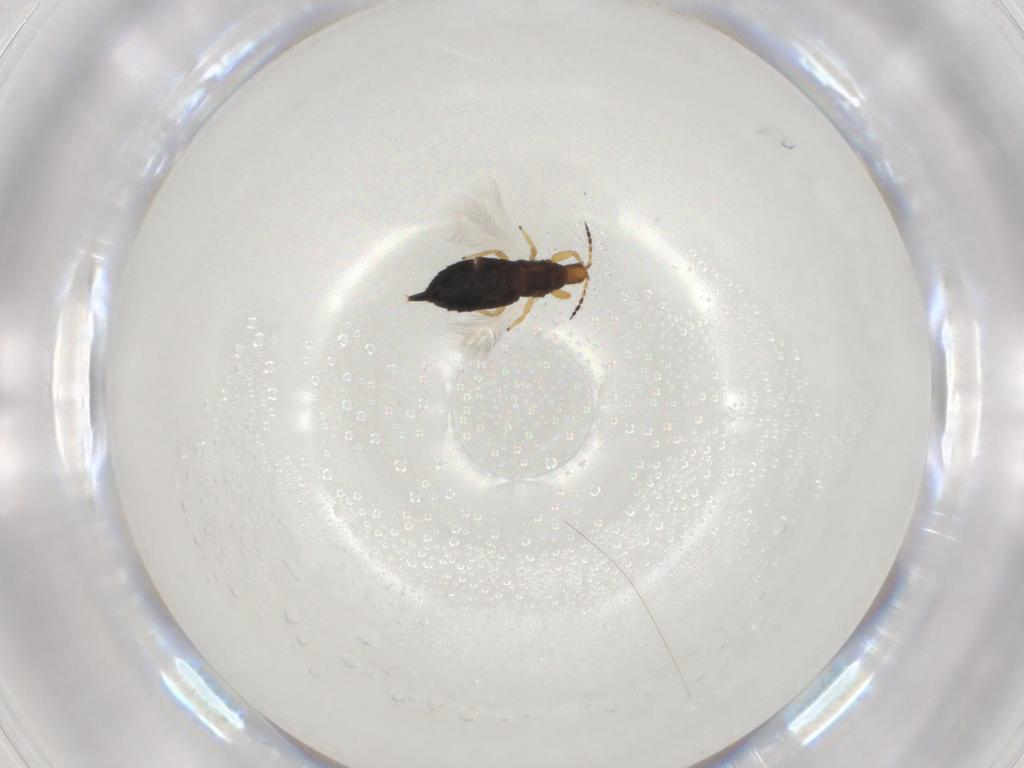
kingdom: Animalia
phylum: Arthropoda
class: Insecta
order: Thysanoptera
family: Phlaeothripidae
